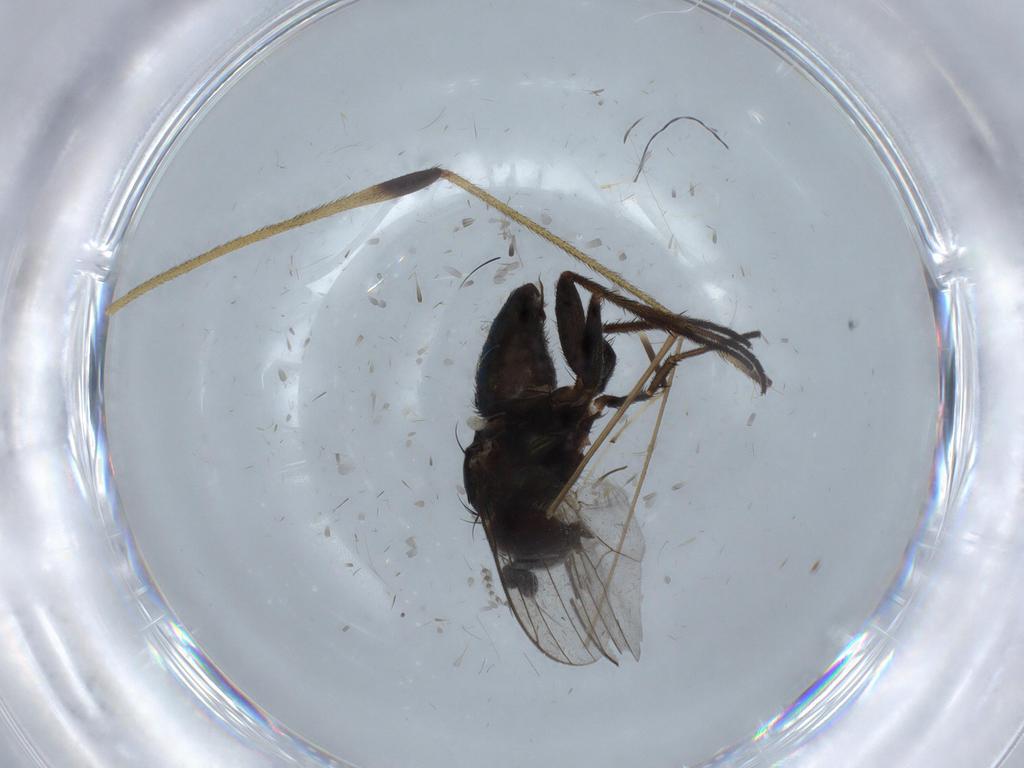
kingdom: Animalia
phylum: Arthropoda
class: Insecta
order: Diptera
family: Limoniidae
